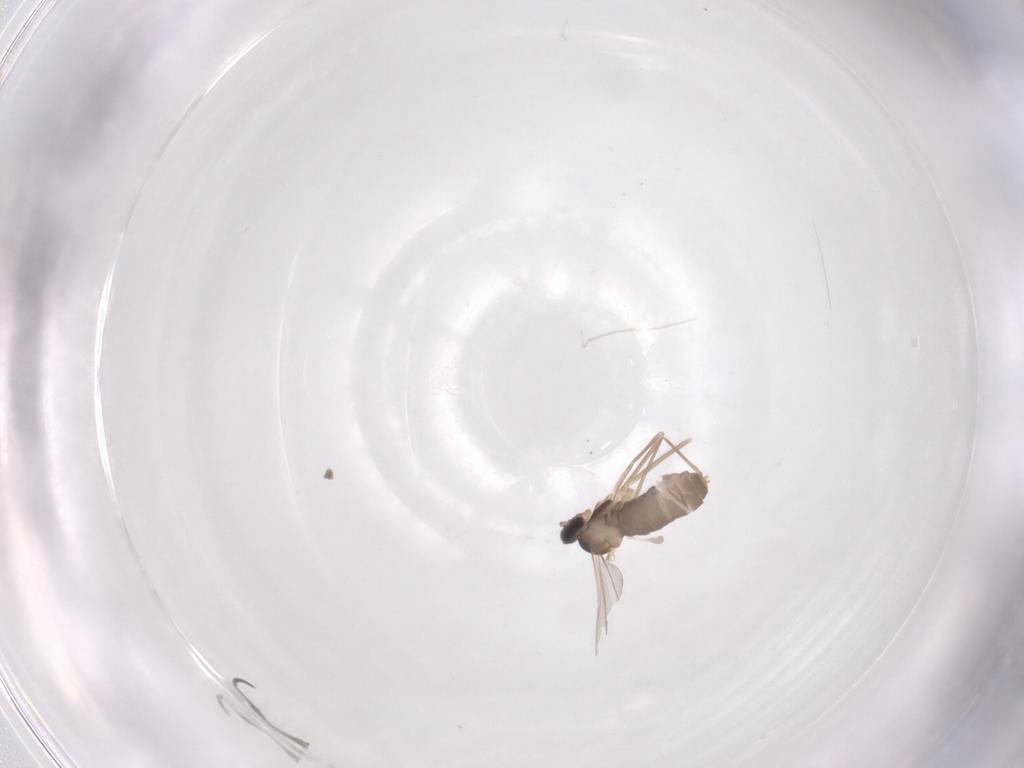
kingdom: Animalia
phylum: Arthropoda
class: Insecta
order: Diptera
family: Cecidomyiidae
